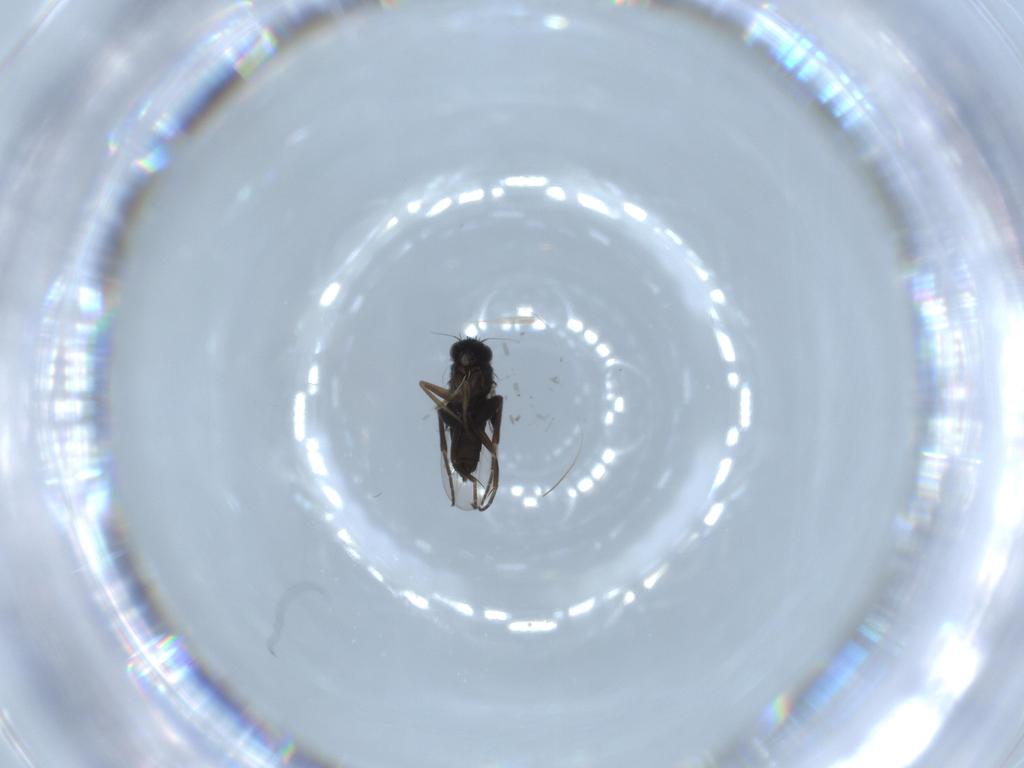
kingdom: Animalia
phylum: Arthropoda
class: Insecta
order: Diptera
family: Phoridae
